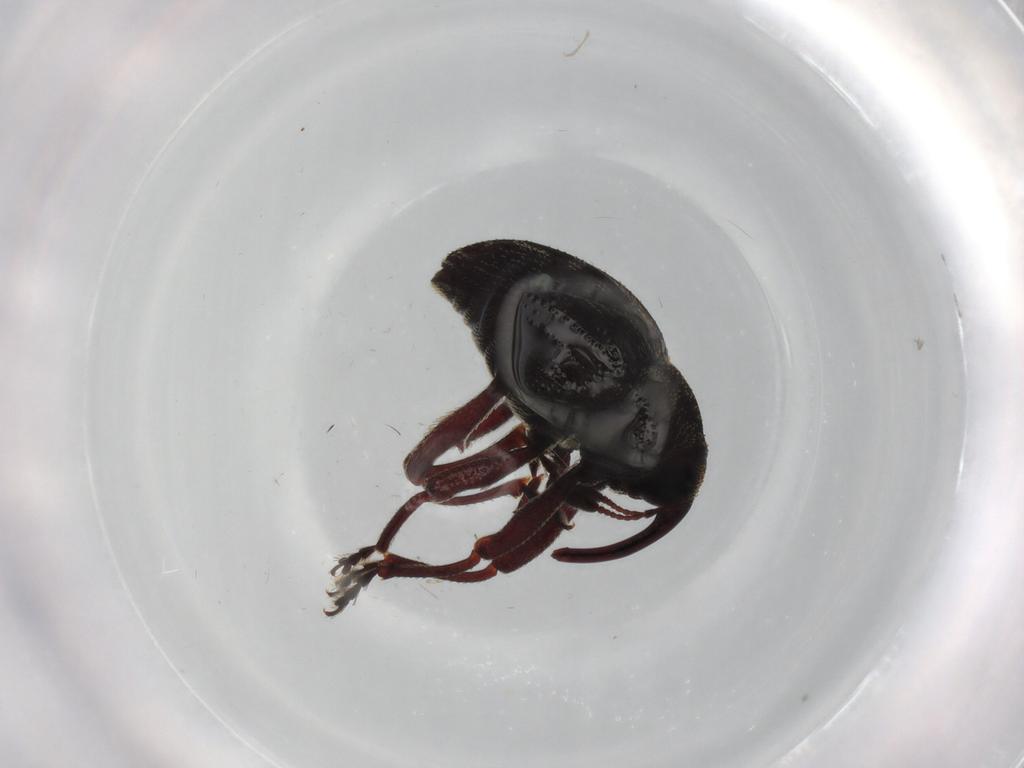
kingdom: Animalia
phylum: Arthropoda
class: Insecta
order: Coleoptera
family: Curculionidae
